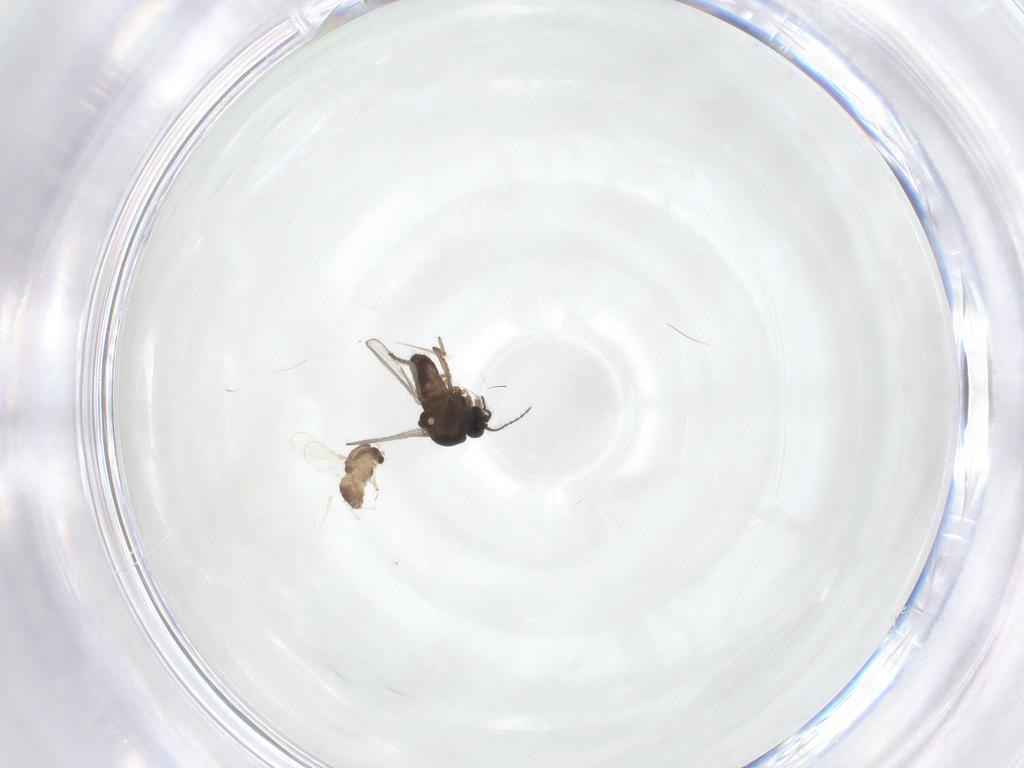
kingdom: Animalia
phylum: Arthropoda
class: Insecta
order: Diptera
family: Ceratopogonidae
